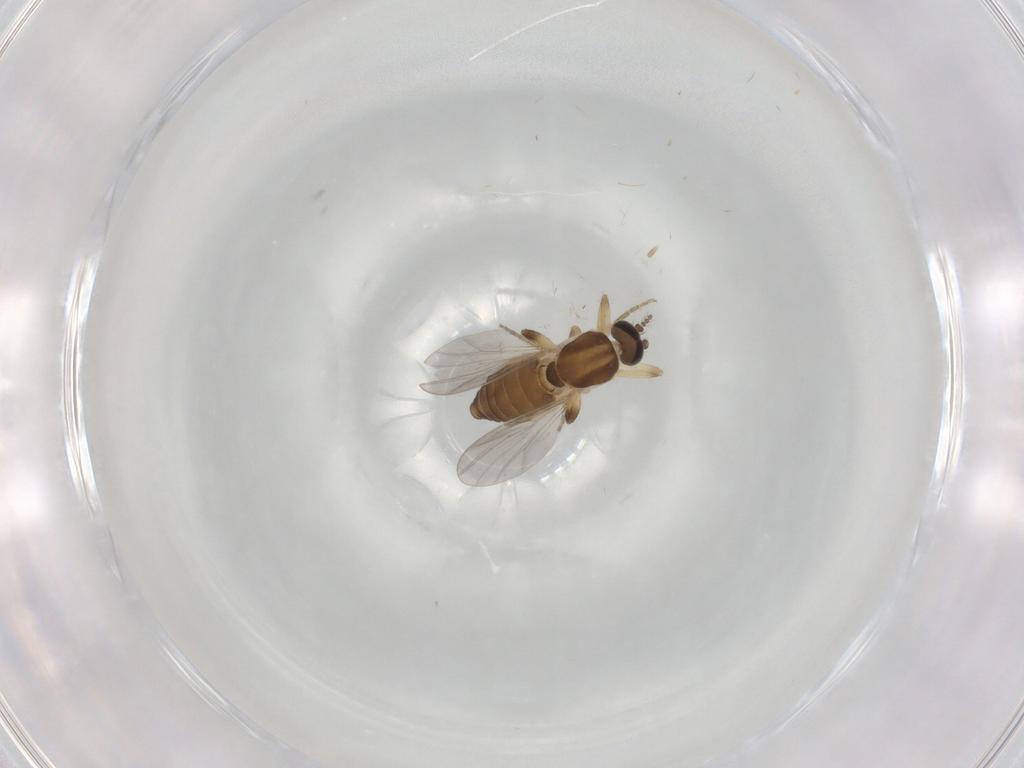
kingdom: Animalia
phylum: Arthropoda
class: Insecta
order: Diptera
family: Ceratopogonidae
